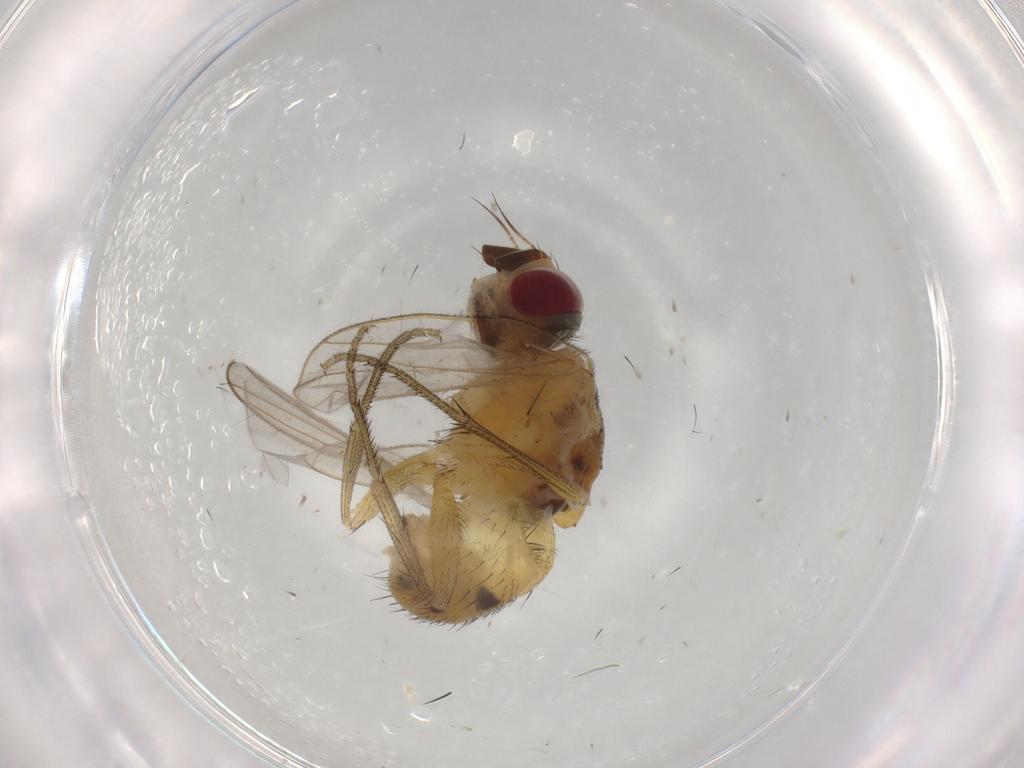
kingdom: Animalia
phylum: Arthropoda
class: Insecta
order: Diptera
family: Muscidae
